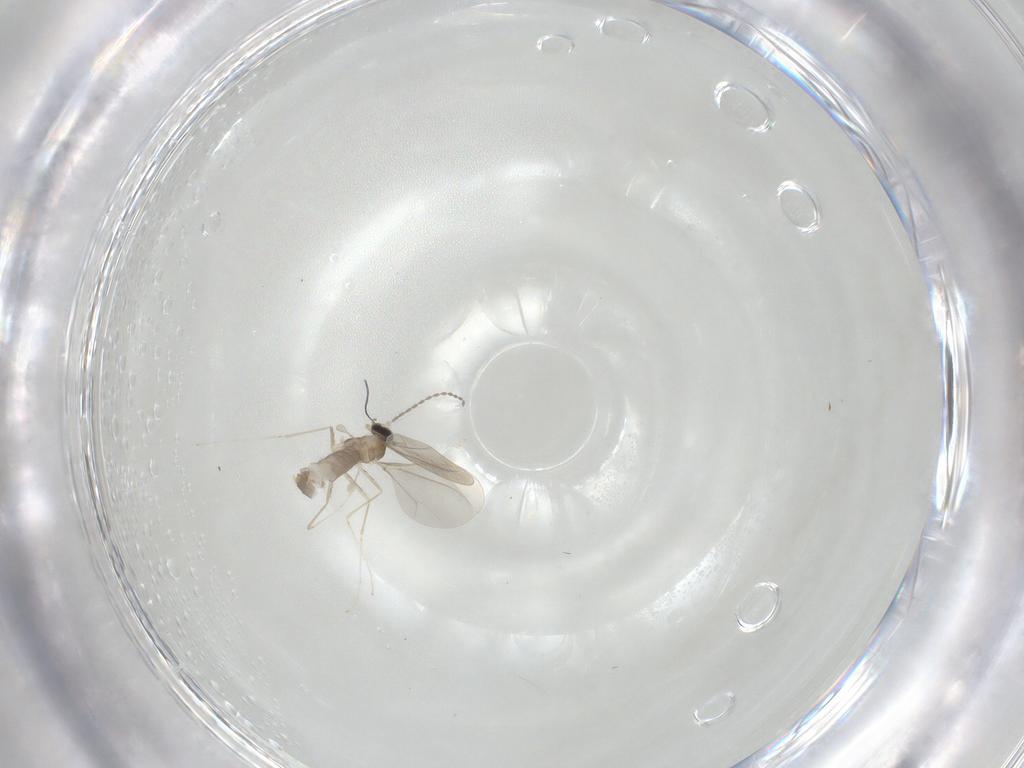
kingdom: Animalia
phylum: Arthropoda
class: Insecta
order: Diptera
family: Cecidomyiidae
